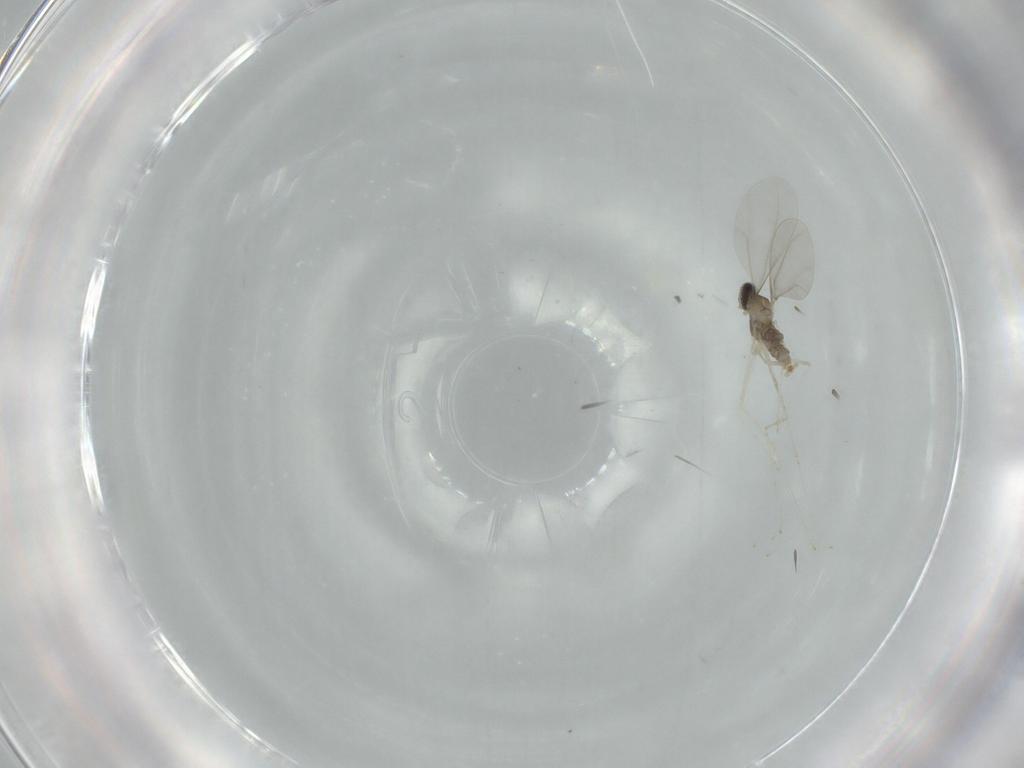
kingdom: Animalia
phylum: Arthropoda
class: Insecta
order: Diptera
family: Cecidomyiidae
